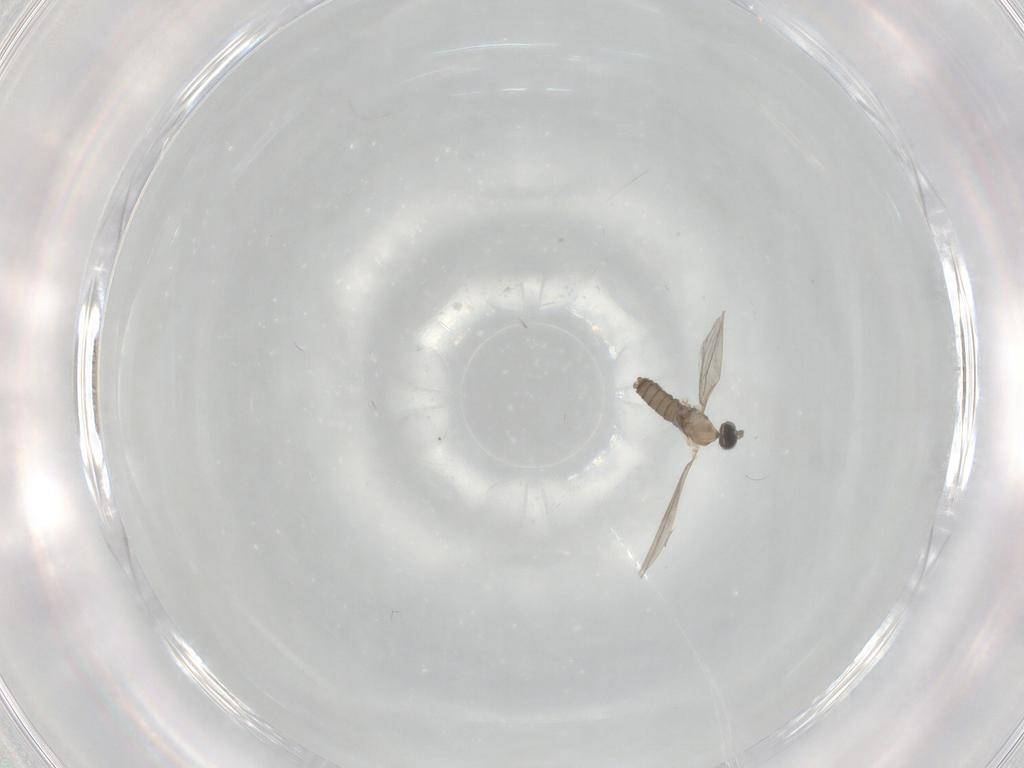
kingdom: Animalia
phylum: Arthropoda
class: Insecta
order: Diptera
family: Cecidomyiidae
